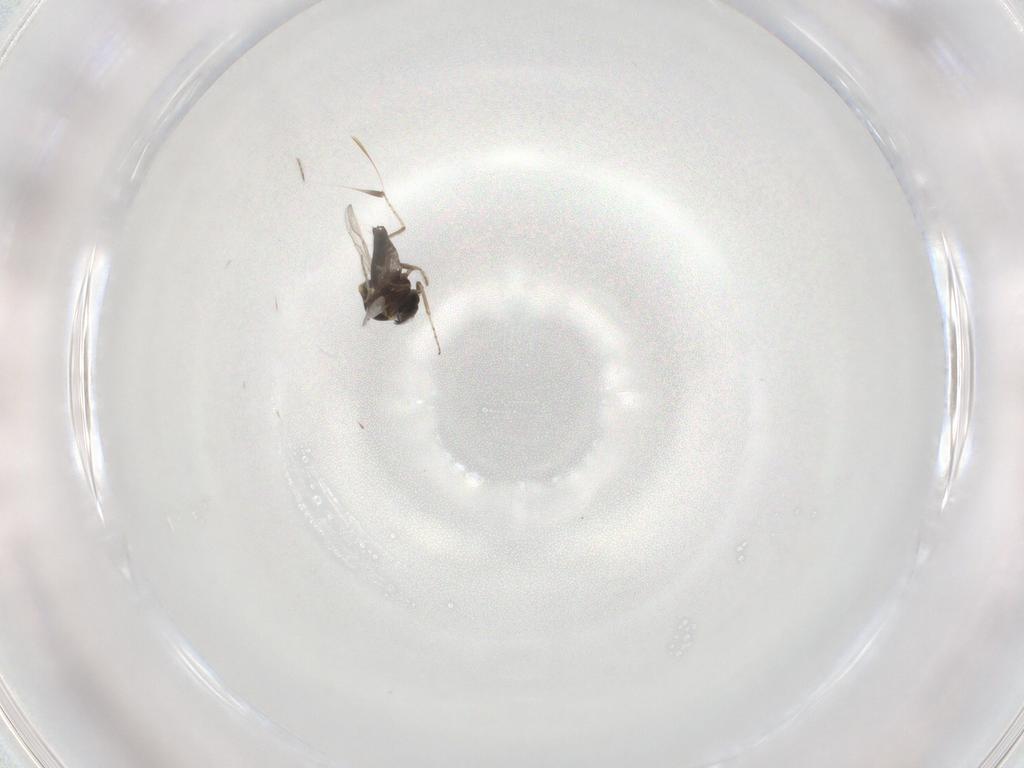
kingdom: Animalia
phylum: Arthropoda
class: Insecta
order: Diptera
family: Ceratopogonidae
